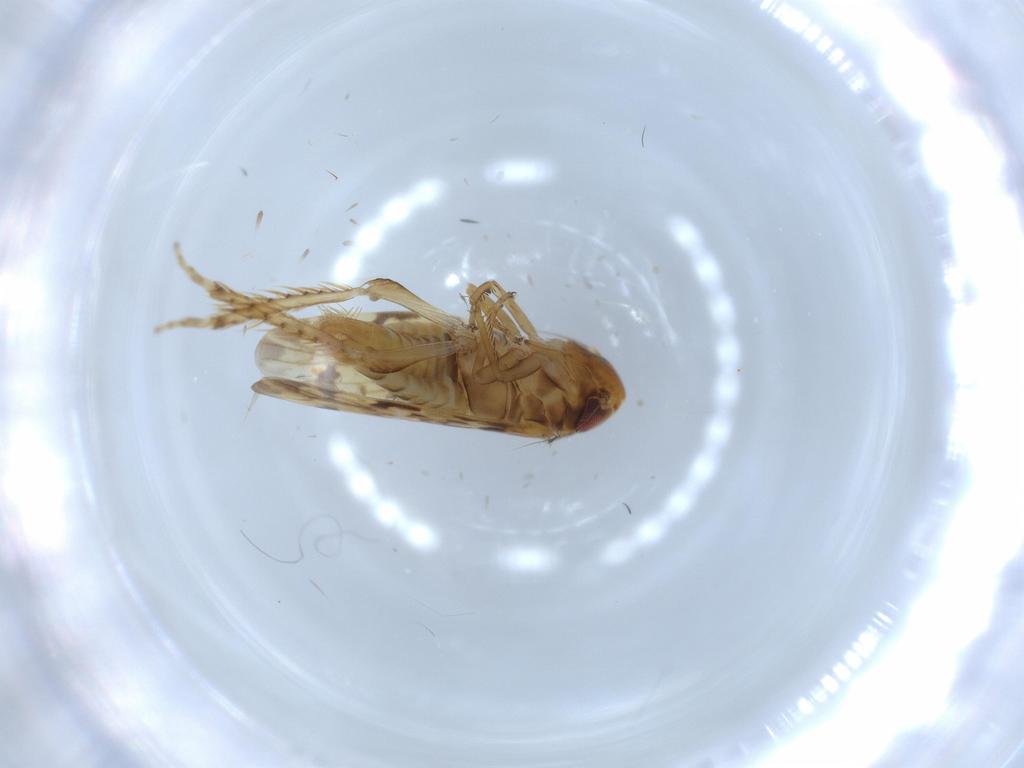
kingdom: Animalia
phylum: Arthropoda
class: Insecta
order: Hemiptera
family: Cicadellidae
